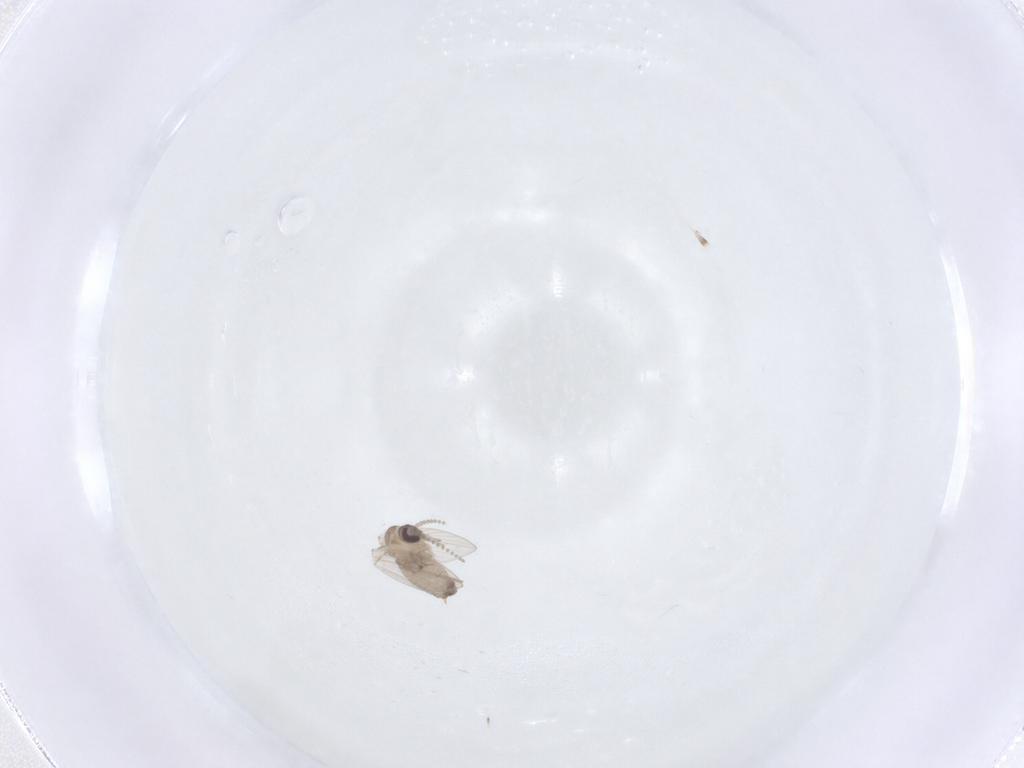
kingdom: Animalia
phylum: Arthropoda
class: Insecta
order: Diptera
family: Psychodidae
